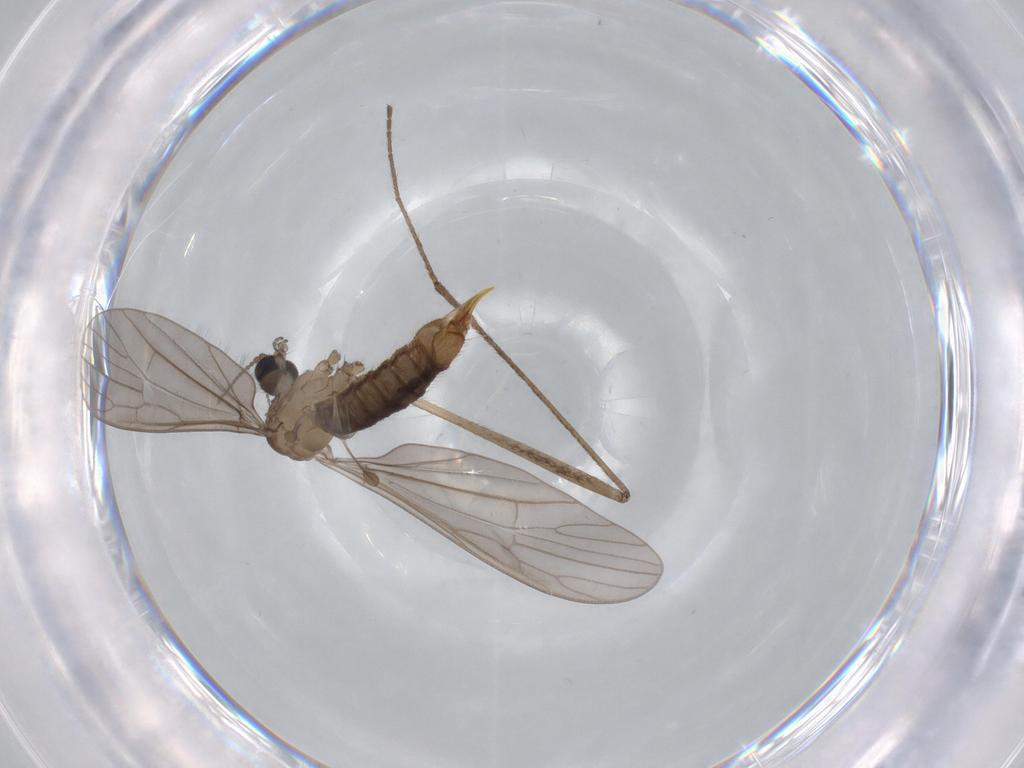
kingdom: Animalia
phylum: Arthropoda
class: Insecta
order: Diptera
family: Limoniidae
